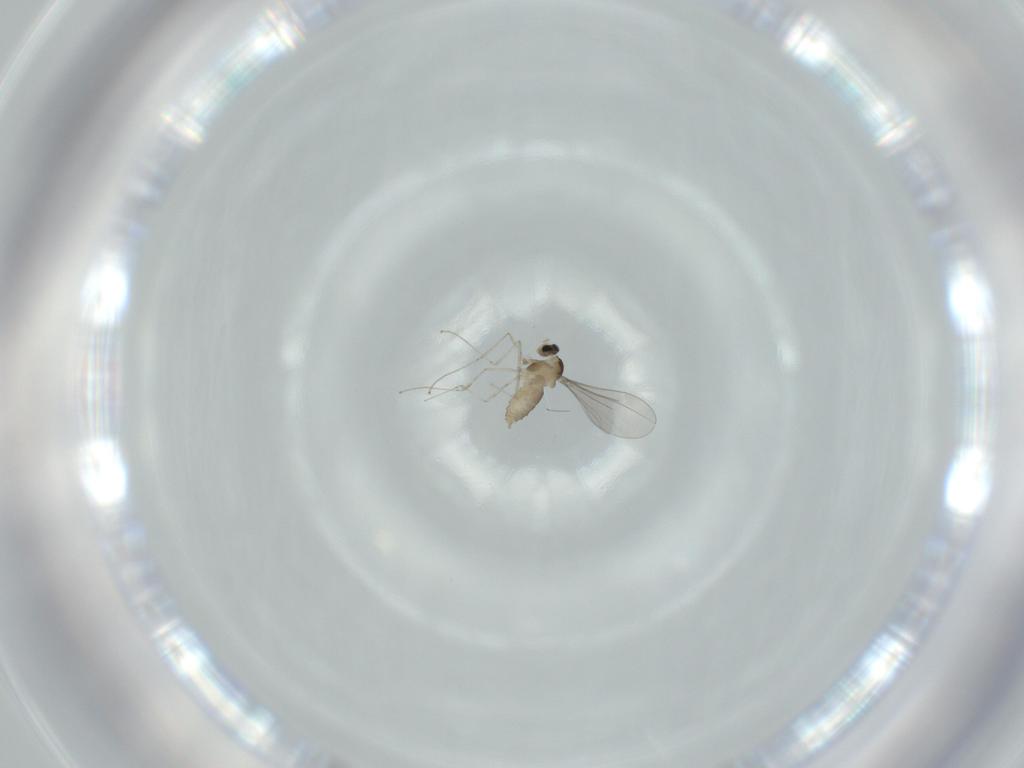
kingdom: Animalia
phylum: Arthropoda
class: Insecta
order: Diptera
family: Cecidomyiidae
